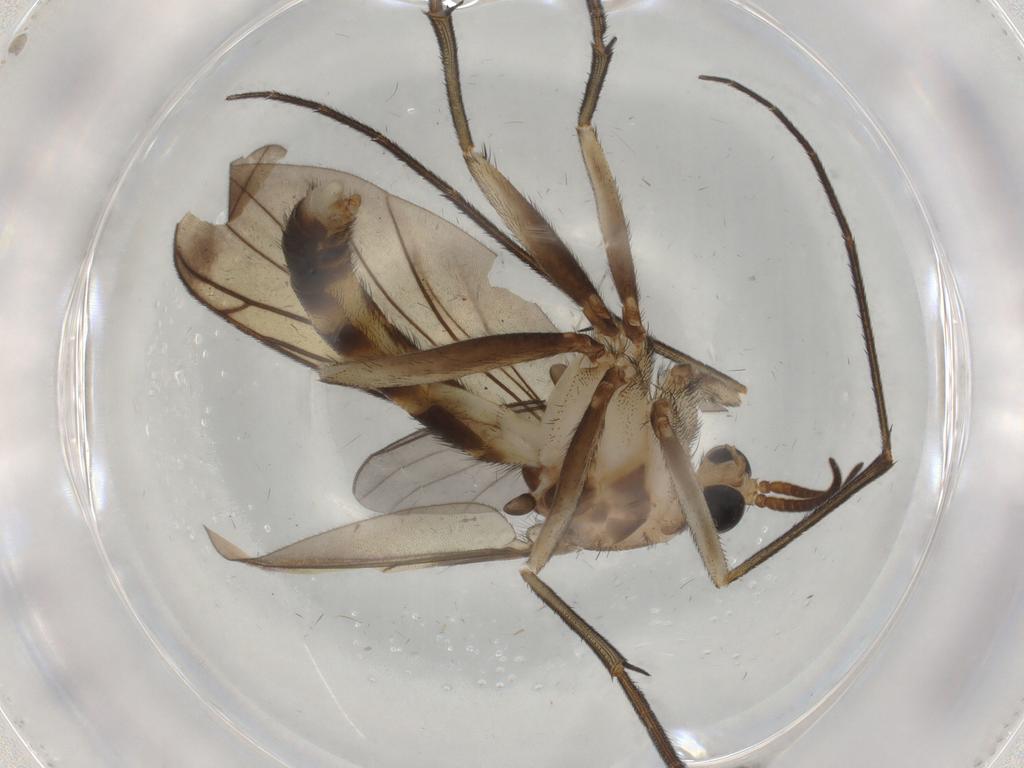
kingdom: Animalia
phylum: Arthropoda
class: Insecta
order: Diptera
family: Sciaridae
